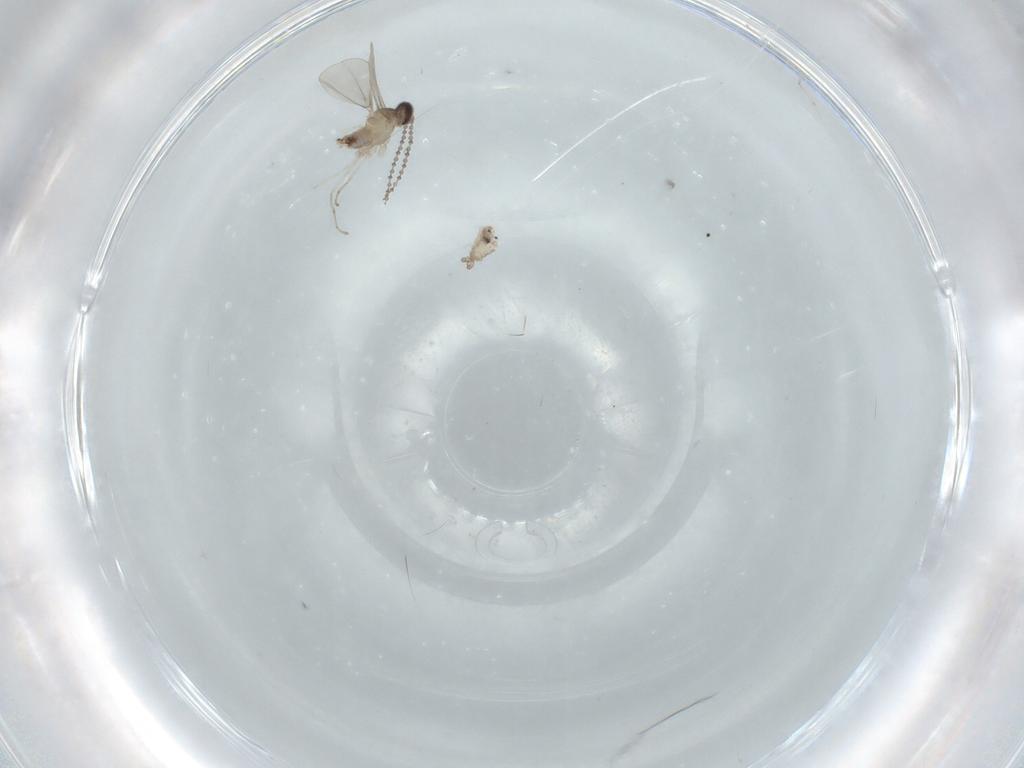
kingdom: Animalia
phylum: Arthropoda
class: Insecta
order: Diptera
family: Cecidomyiidae
